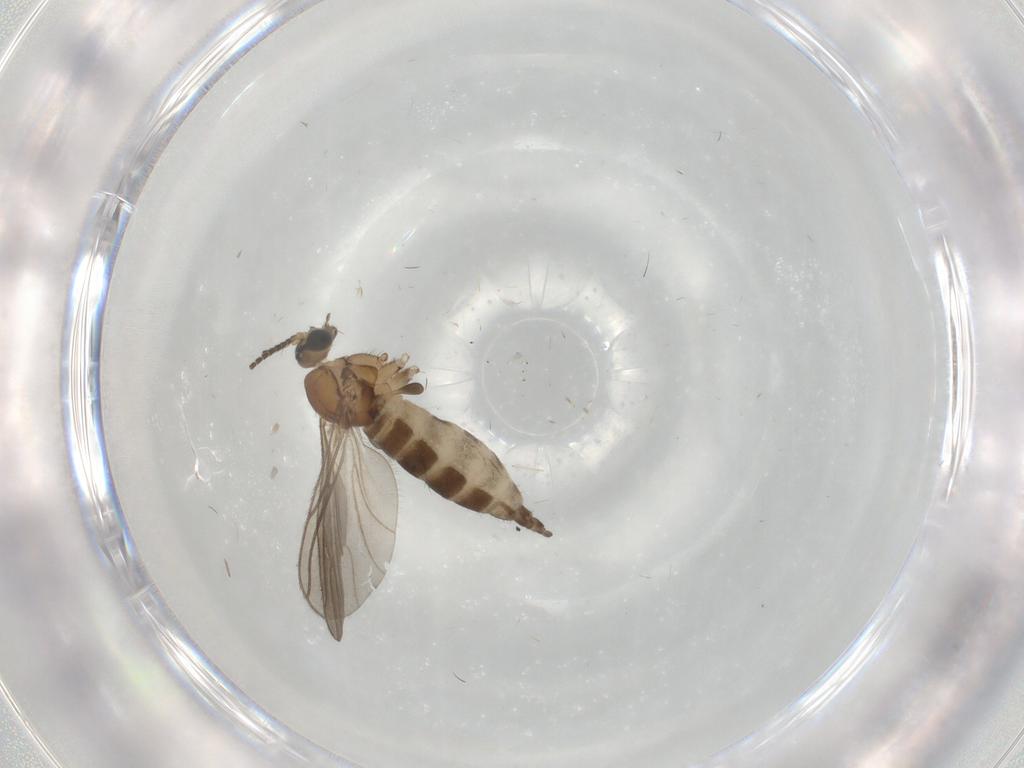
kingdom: Animalia
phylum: Arthropoda
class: Insecta
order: Diptera
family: Sciaridae
